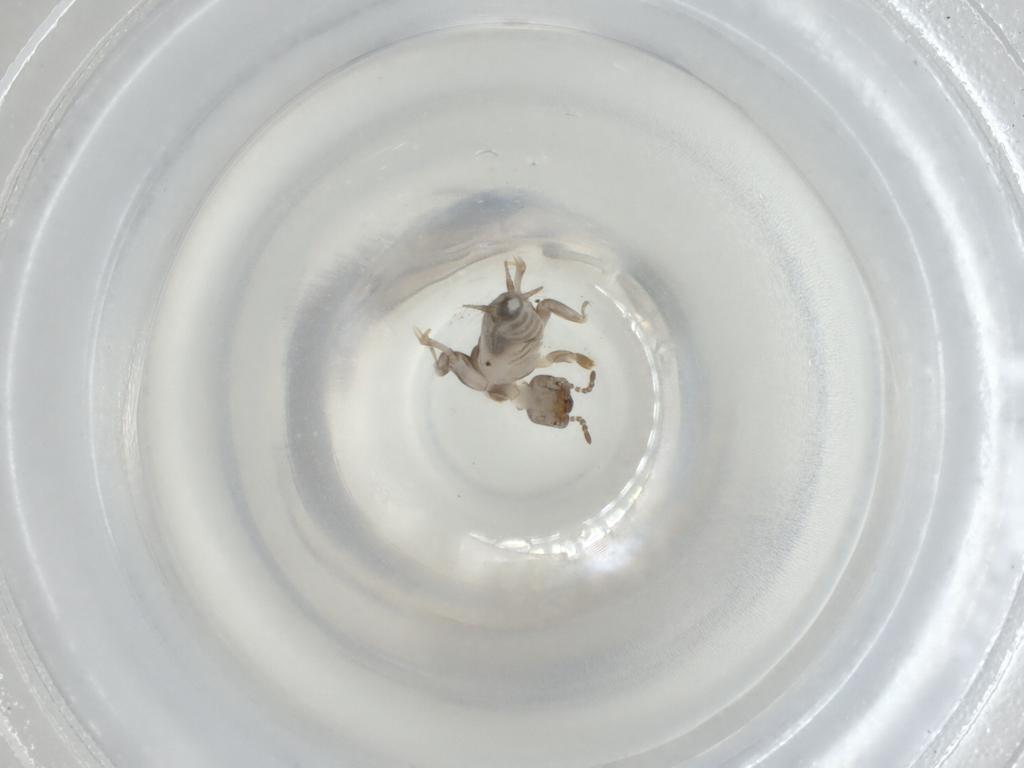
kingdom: Animalia
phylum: Arthropoda
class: Insecta
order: Orthoptera
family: Tridactylidae
